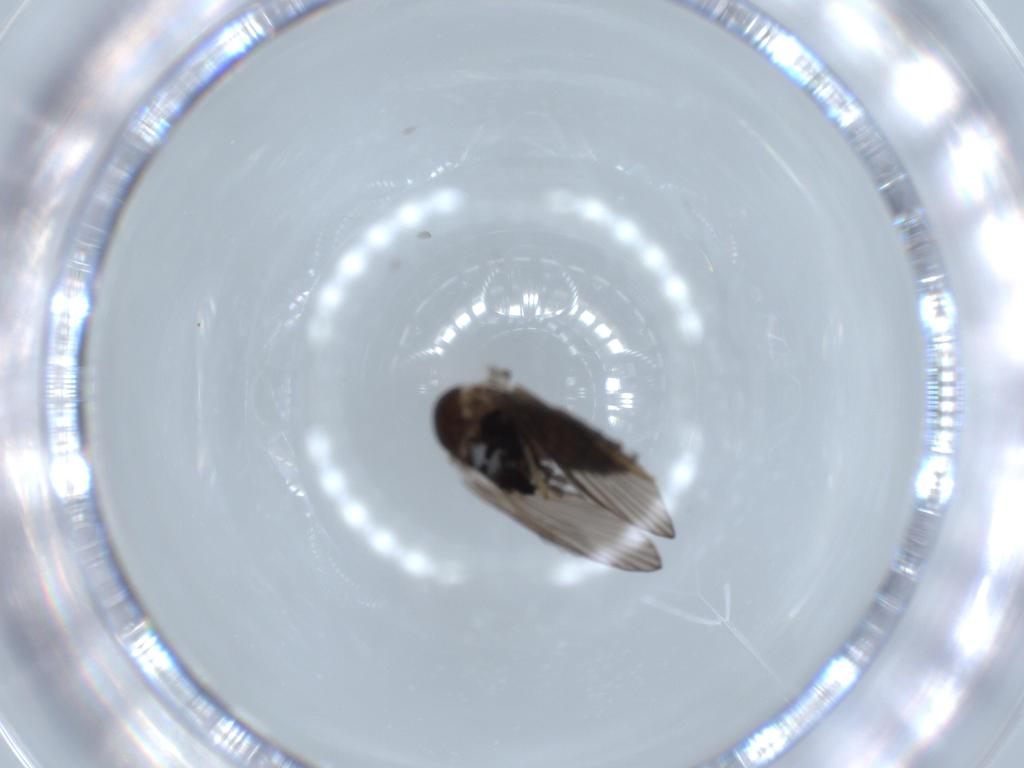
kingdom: Animalia
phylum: Arthropoda
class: Insecta
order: Diptera
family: Psychodidae
